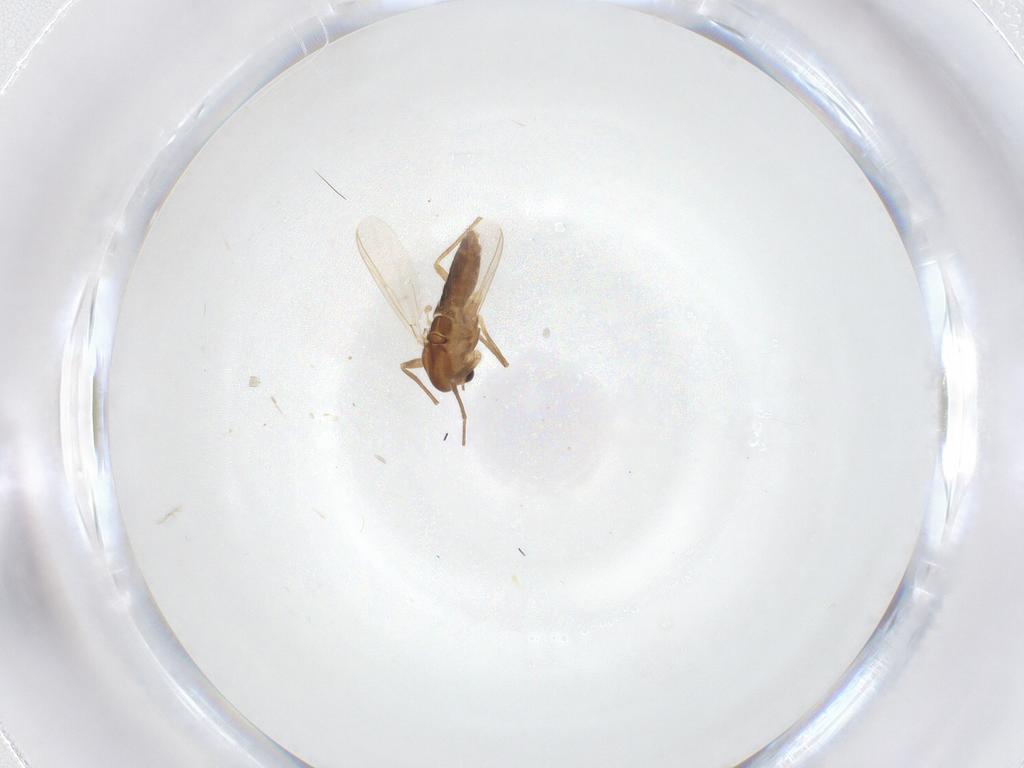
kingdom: Animalia
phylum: Arthropoda
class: Insecta
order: Diptera
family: Chironomidae
